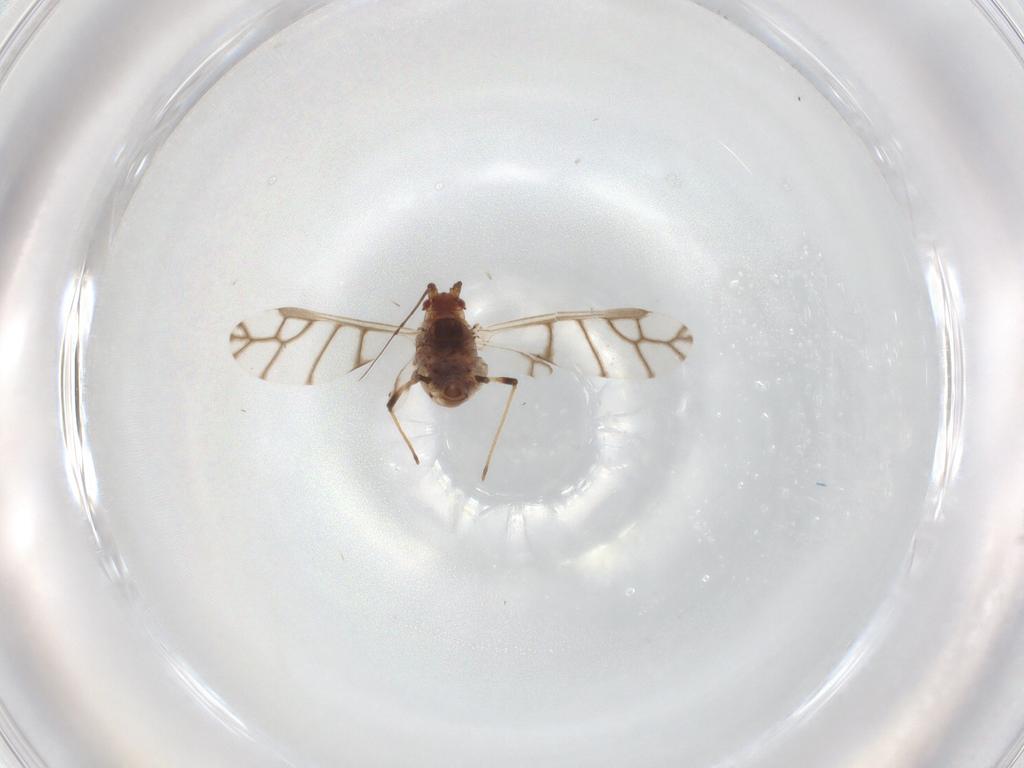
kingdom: Animalia
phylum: Arthropoda
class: Insecta
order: Hemiptera
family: Aphididae
